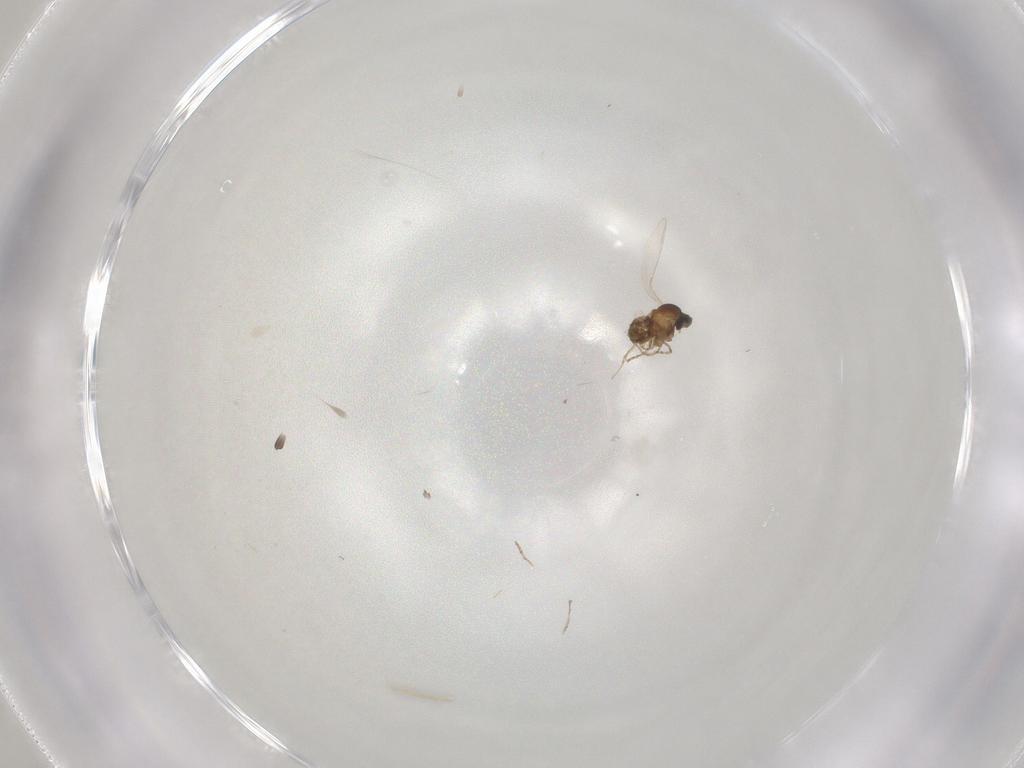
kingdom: Animalia
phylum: Arthropoda
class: Insecta
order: Diptera
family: Cecidomyiidae
